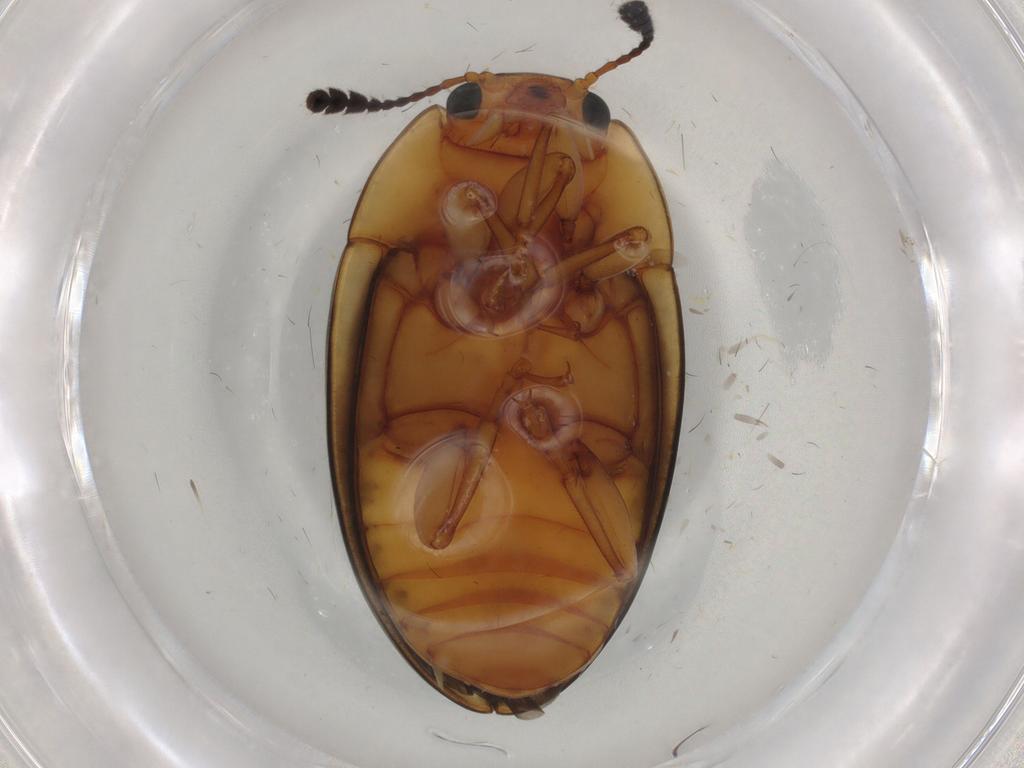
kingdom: Animalia
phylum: Arthropoda
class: Insecta
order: Coleoptera
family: Erotylidae
